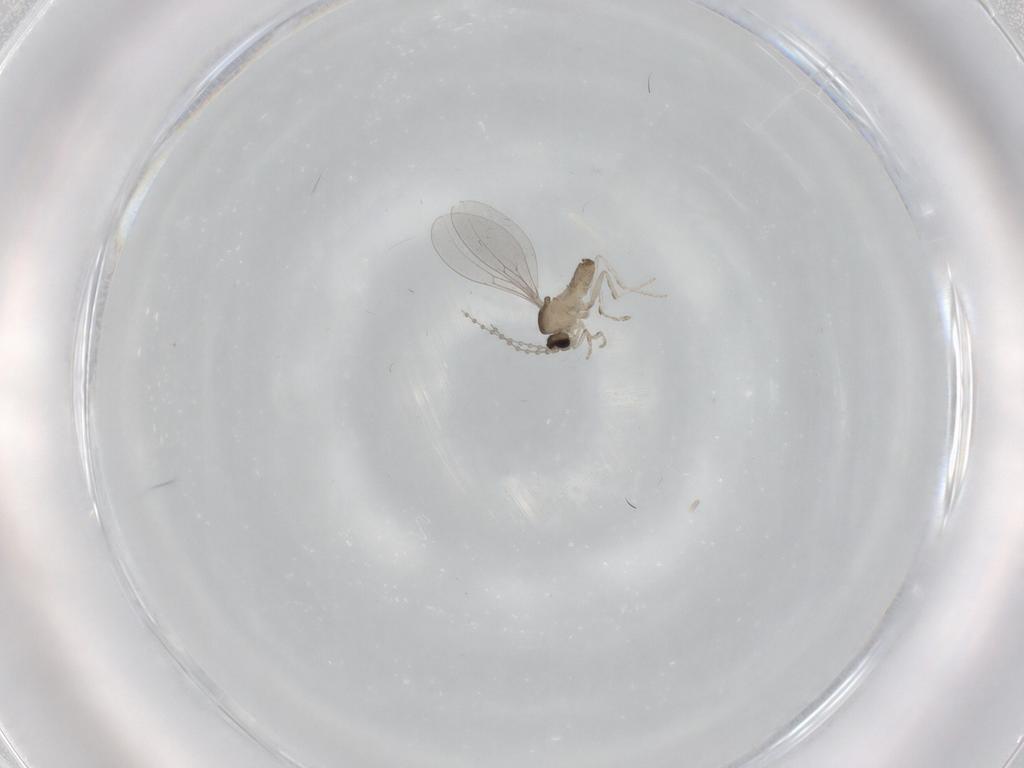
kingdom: Animalia
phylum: Arthropoda
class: Insecta
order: Diptera
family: Cecidomyiidae
